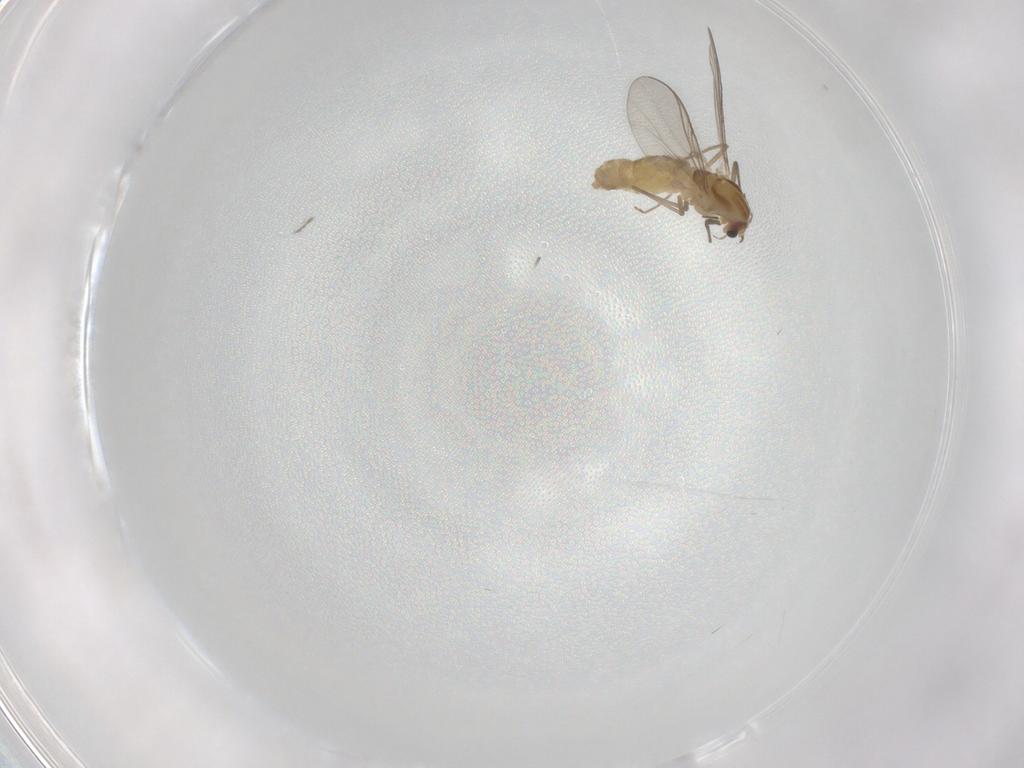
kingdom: Animalia
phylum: Arthropoda
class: Insecta
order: Diptera
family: Chironomidae
